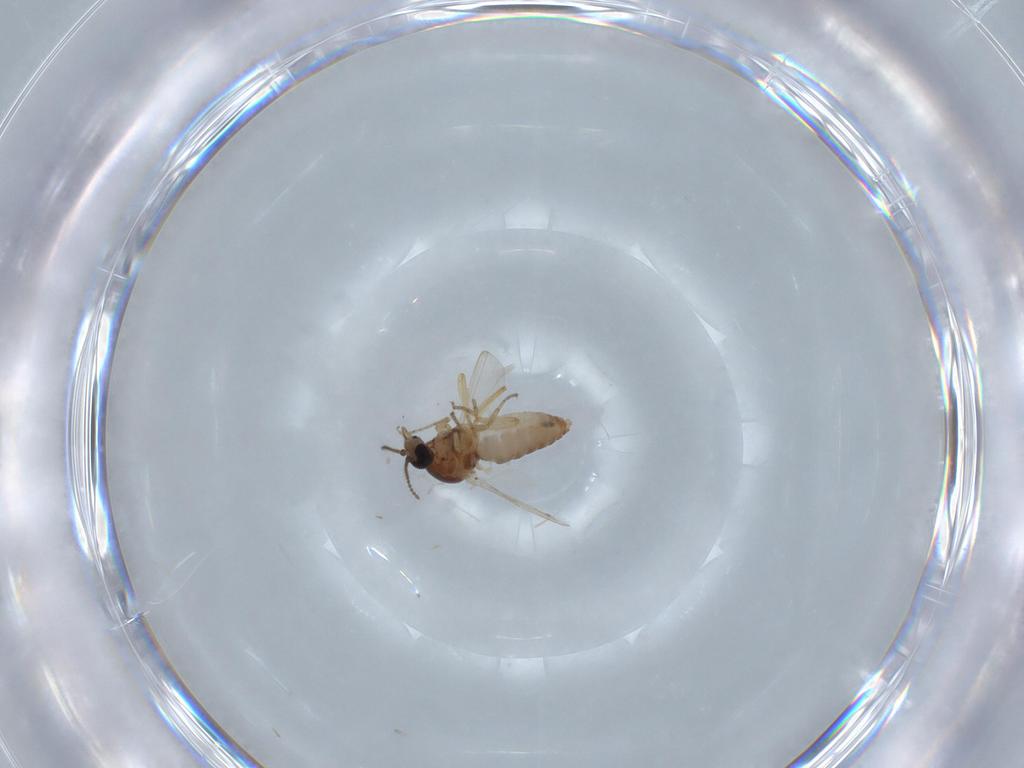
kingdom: Animalia
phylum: Arthropoda
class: Insecta
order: Diptera
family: Ceratopogonidae
